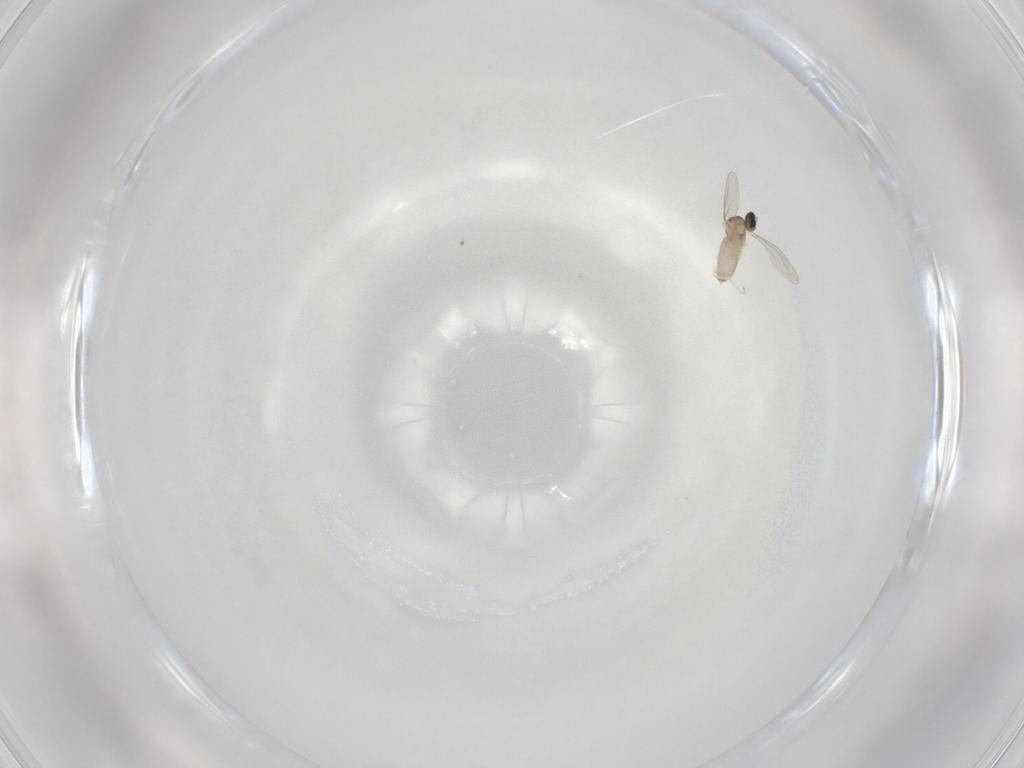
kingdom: Animalia
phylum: Arthropoda
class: Insecta
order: Diptera
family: Cecidomyiidae
